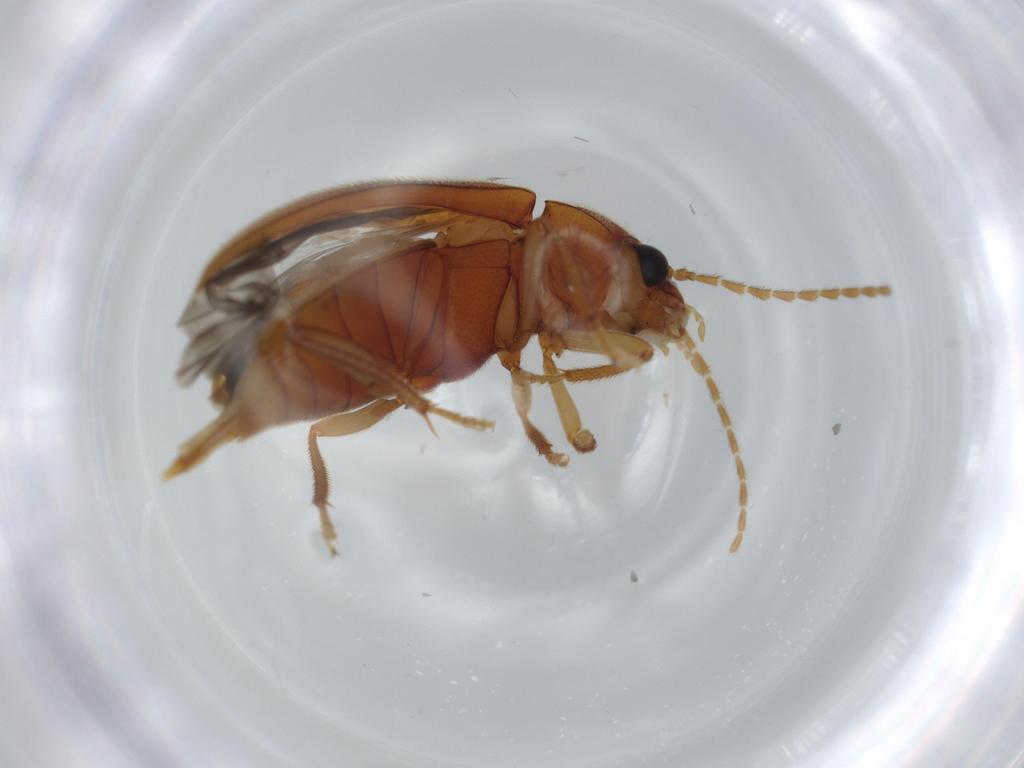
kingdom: Animalia
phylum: Arthropoda
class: Insecta
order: Coleoptera
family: Ptilodactylidae
